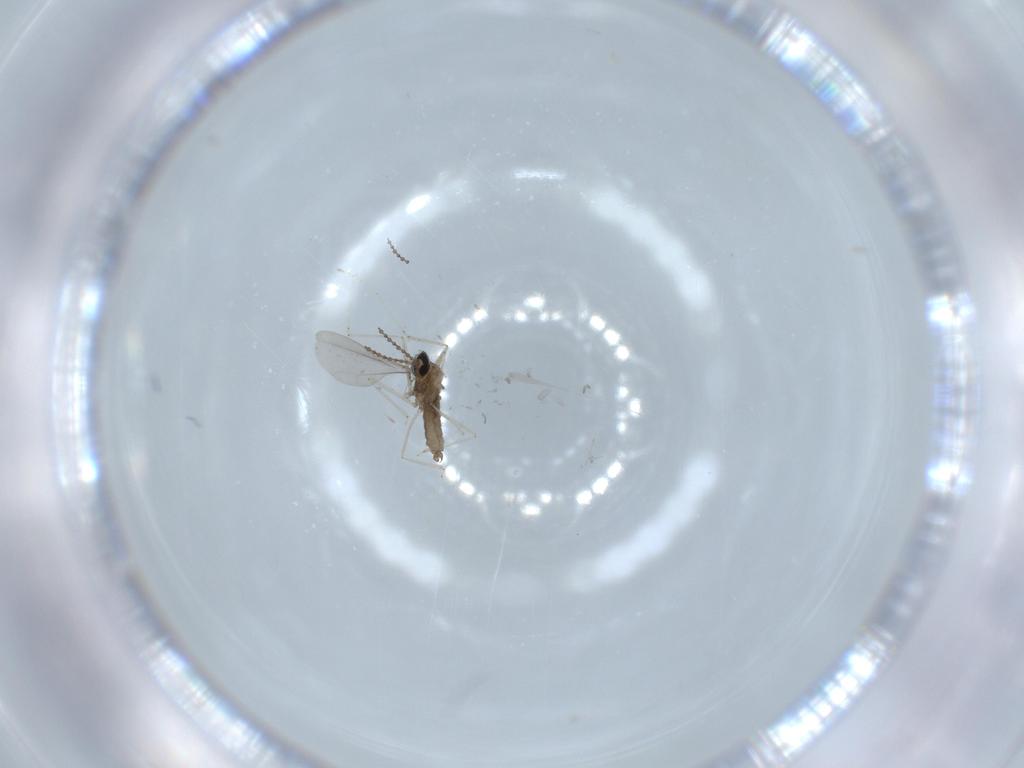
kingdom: Animalia
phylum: Arthropoda
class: Insecta
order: Diptera
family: Cecidomyiidae
